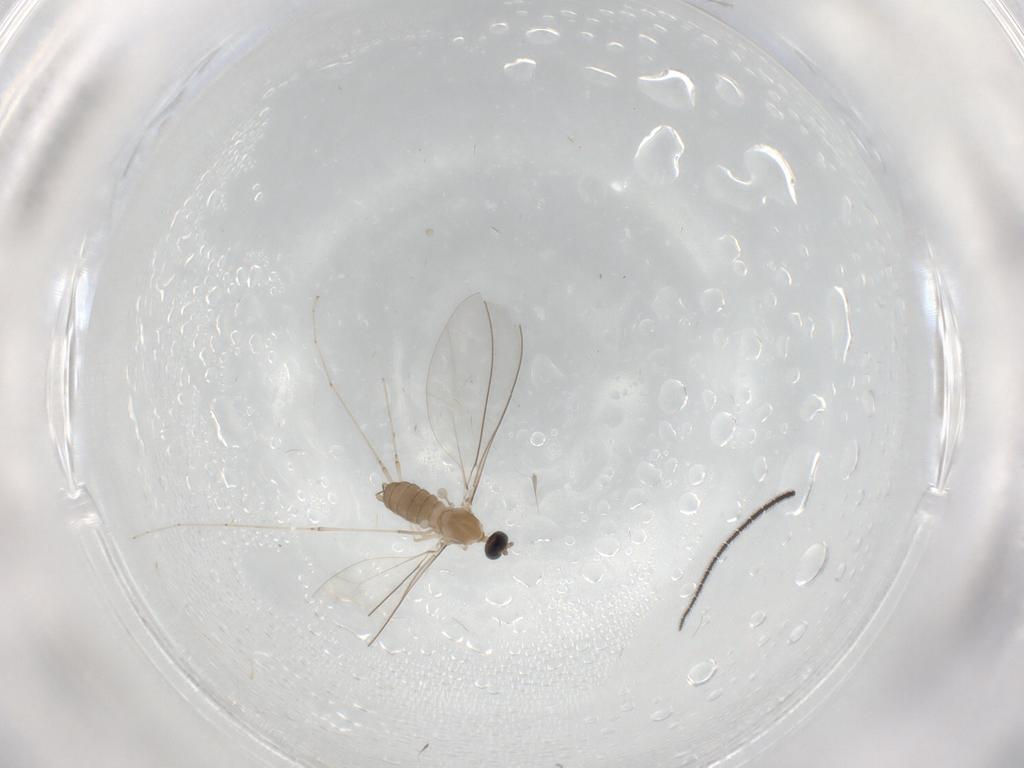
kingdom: Animalia
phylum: Arthropoda
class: Insecta
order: Diptera
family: Cecidomyiidae
